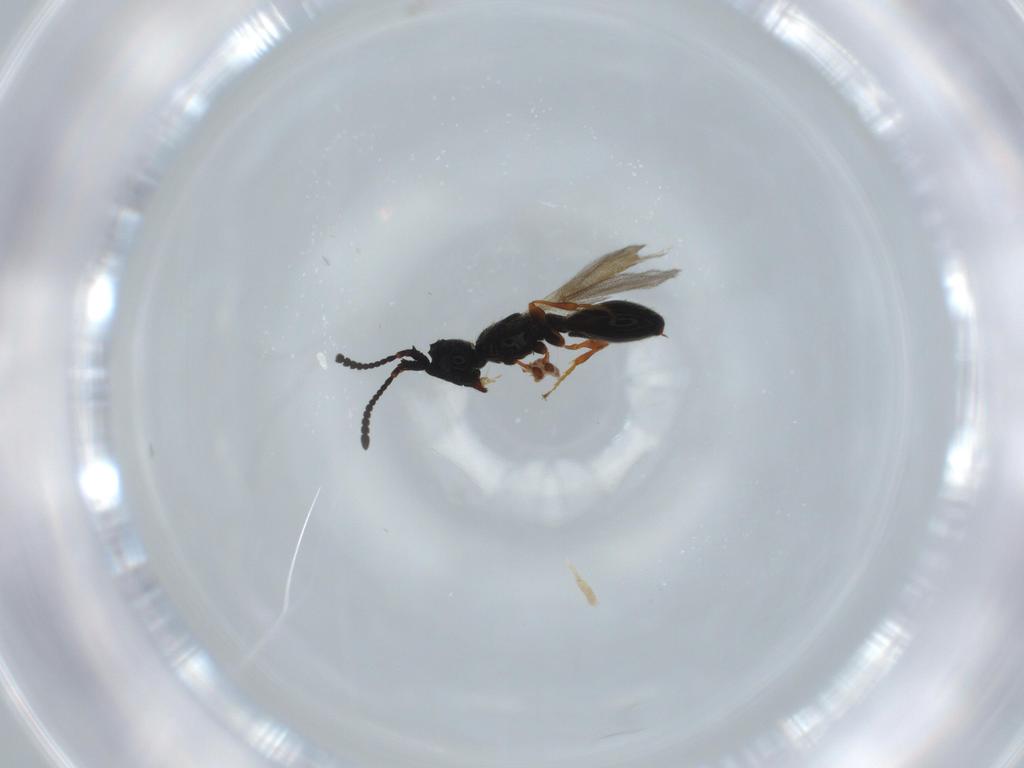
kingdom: Animalia
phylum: Arthropoda
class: Insecta
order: Hymenoptera
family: Diapriidae
